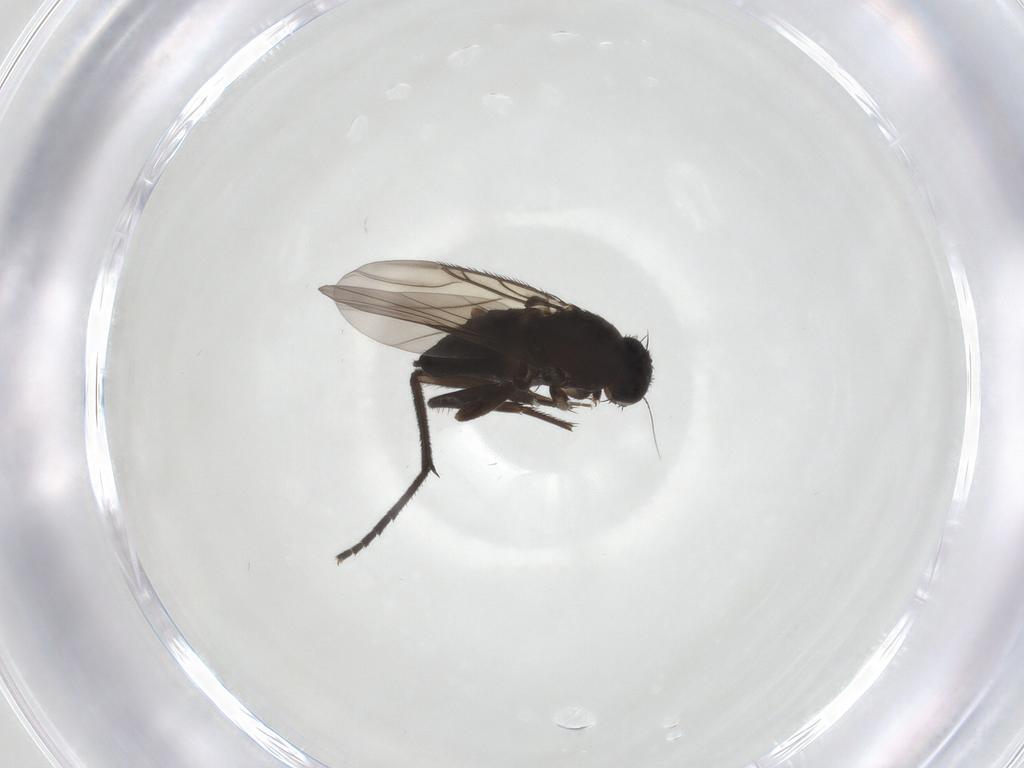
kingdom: Animalia
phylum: Arthropoda
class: Insecta
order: Diptera
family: Phoridae
